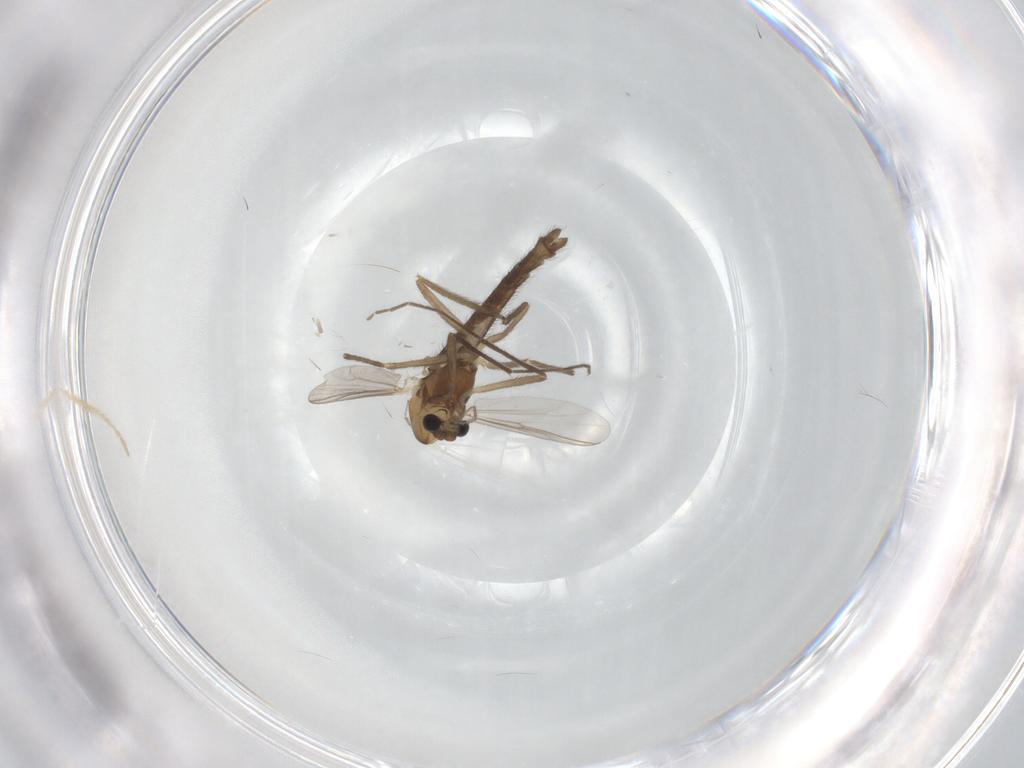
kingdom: Animalia
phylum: Arthropoda
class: Insecta
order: Diptera
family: Chironomidae
